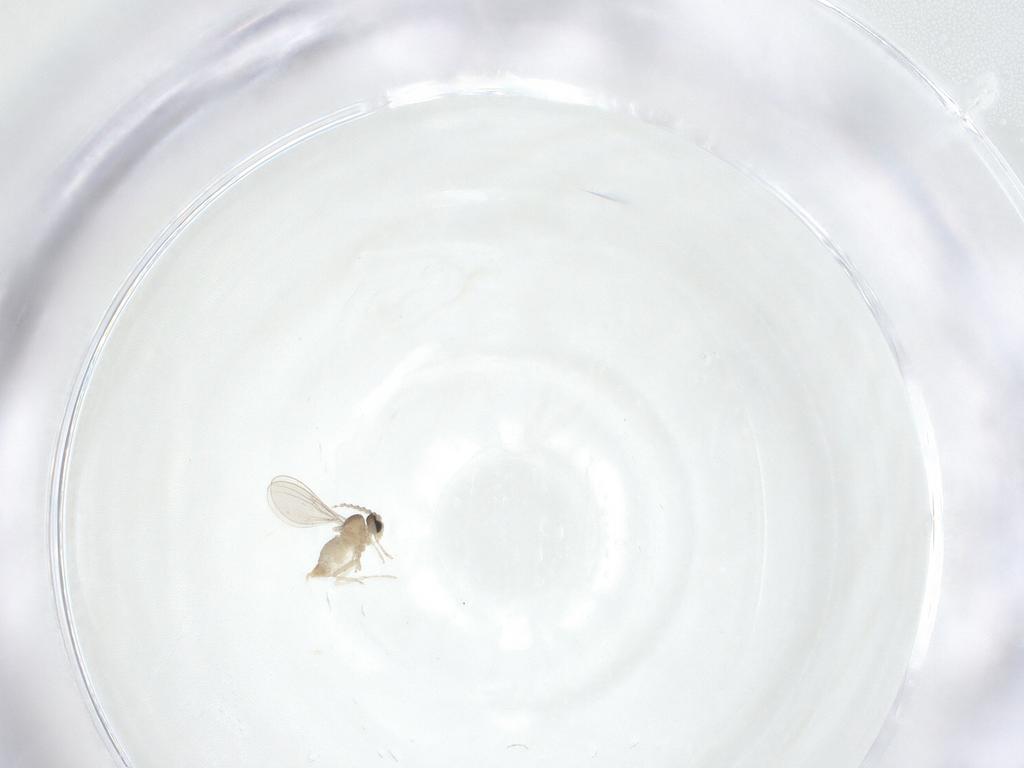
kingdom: Animalia
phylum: Arthropoda
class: Insecta
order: Diptera
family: Cecidomyiidae
